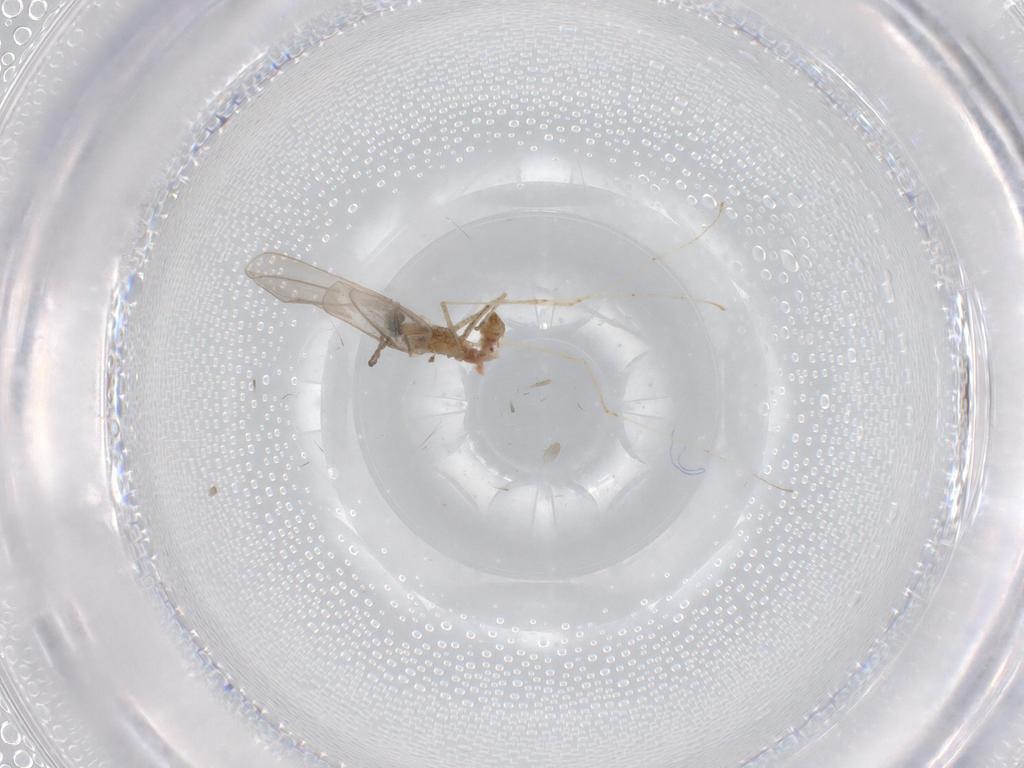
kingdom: Animalia
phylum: Arthropoda
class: Insecta
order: Diptera
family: Cecidomyiidae
